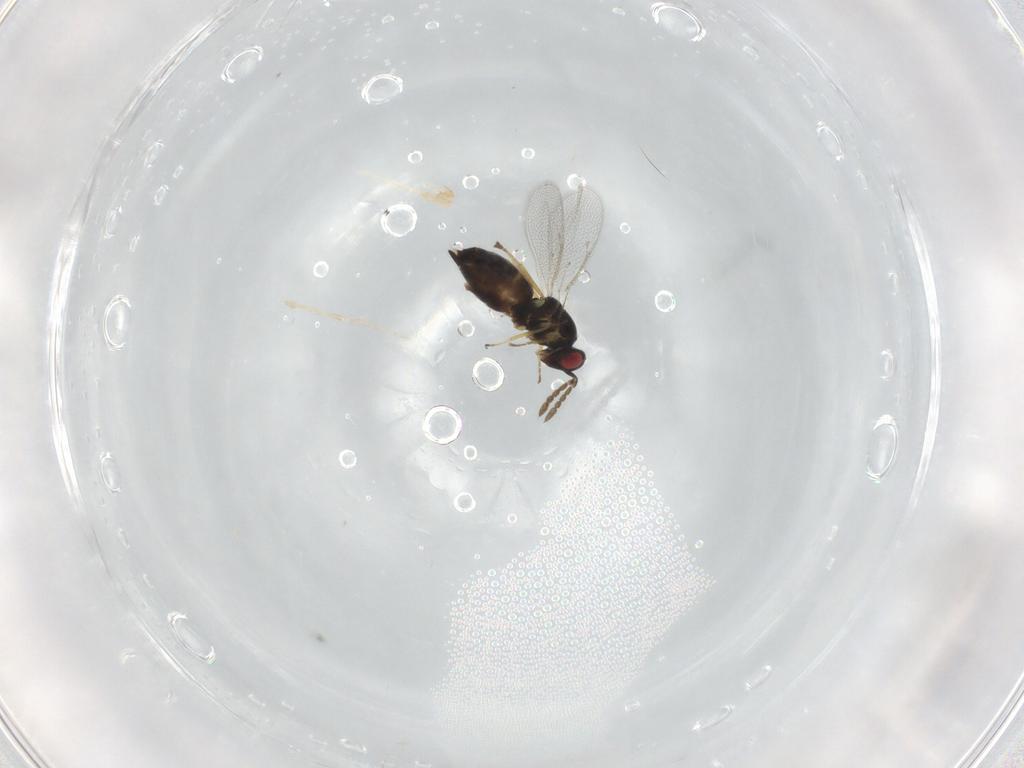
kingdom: Animalia
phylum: Arthropoda
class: Insecta
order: Hymenoptera
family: Eulophidae
